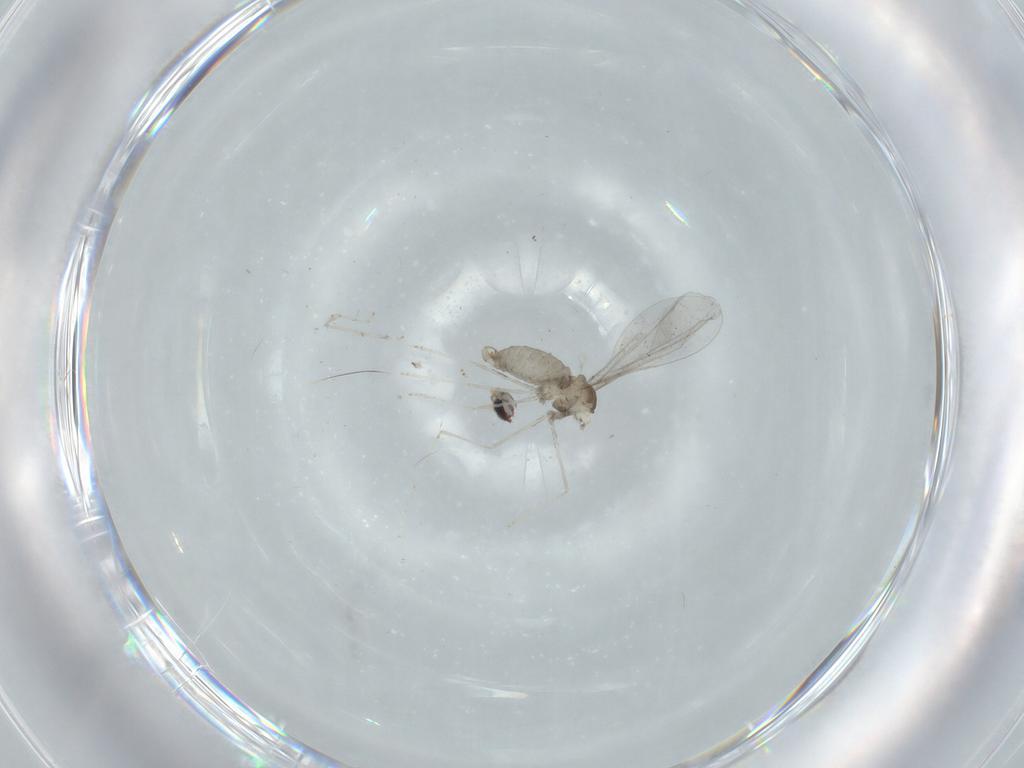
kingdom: Animalia
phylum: Arthropoda
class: Insecta
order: Diptera
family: Cecidomyiidae
